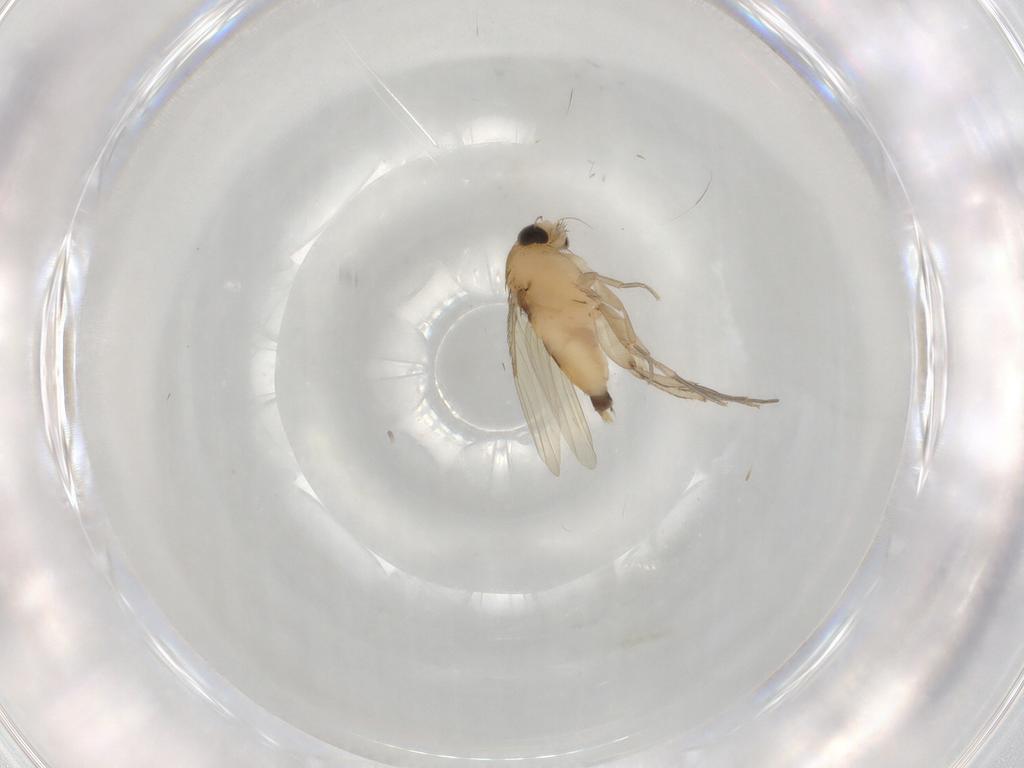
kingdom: Animalia
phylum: Arthropoda
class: Insecta
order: Diptera
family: Phoridae
